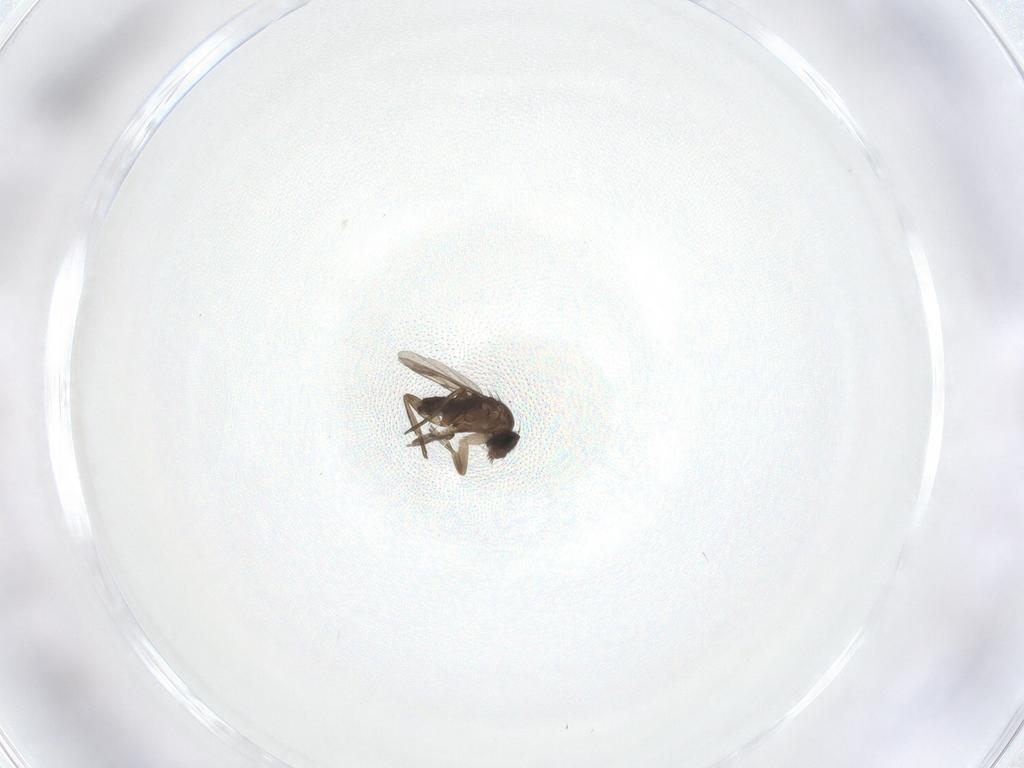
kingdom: Animalia
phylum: Arthropoda
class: Insecta
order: Diptera
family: Phoridae
